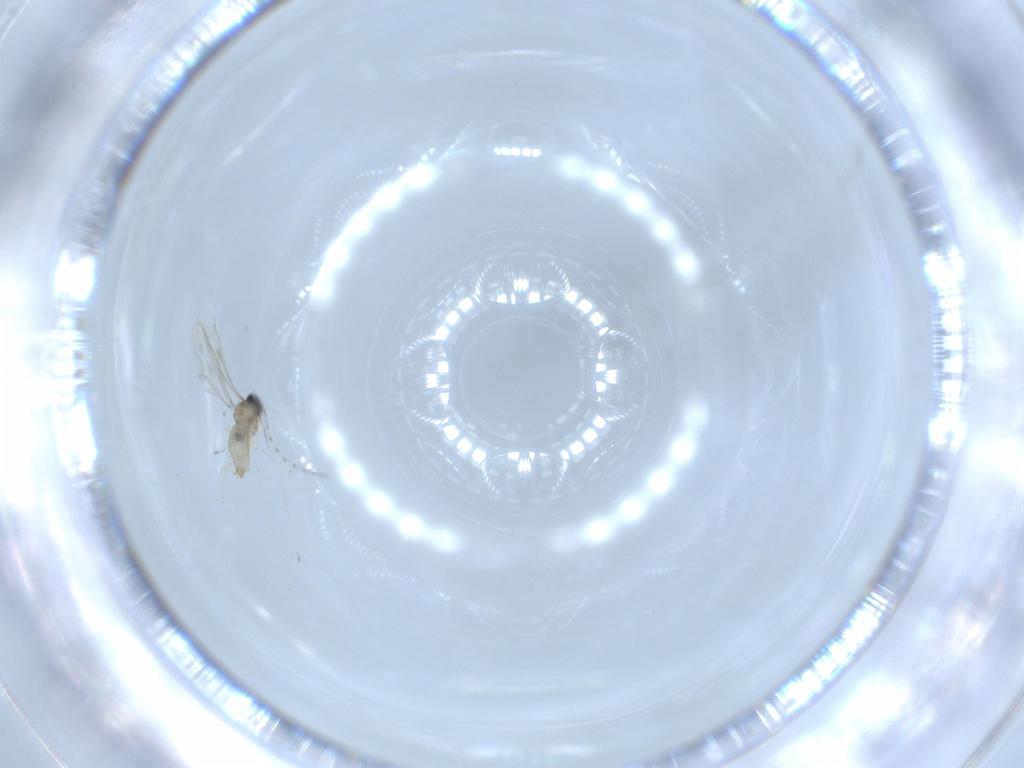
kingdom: Animalia
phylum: Arthropoda
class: Insecta
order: Diptera
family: Cecidomyiidae
